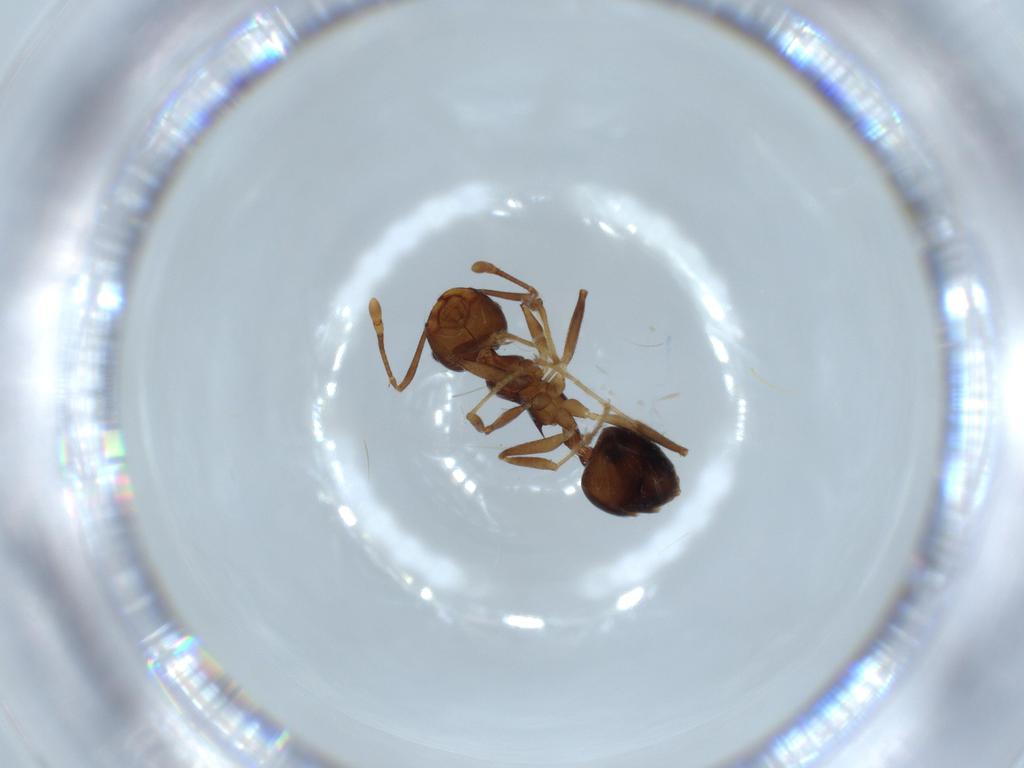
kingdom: Animalia
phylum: Arthropoda
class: Insecta
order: Hymenoptera
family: Formicidae
